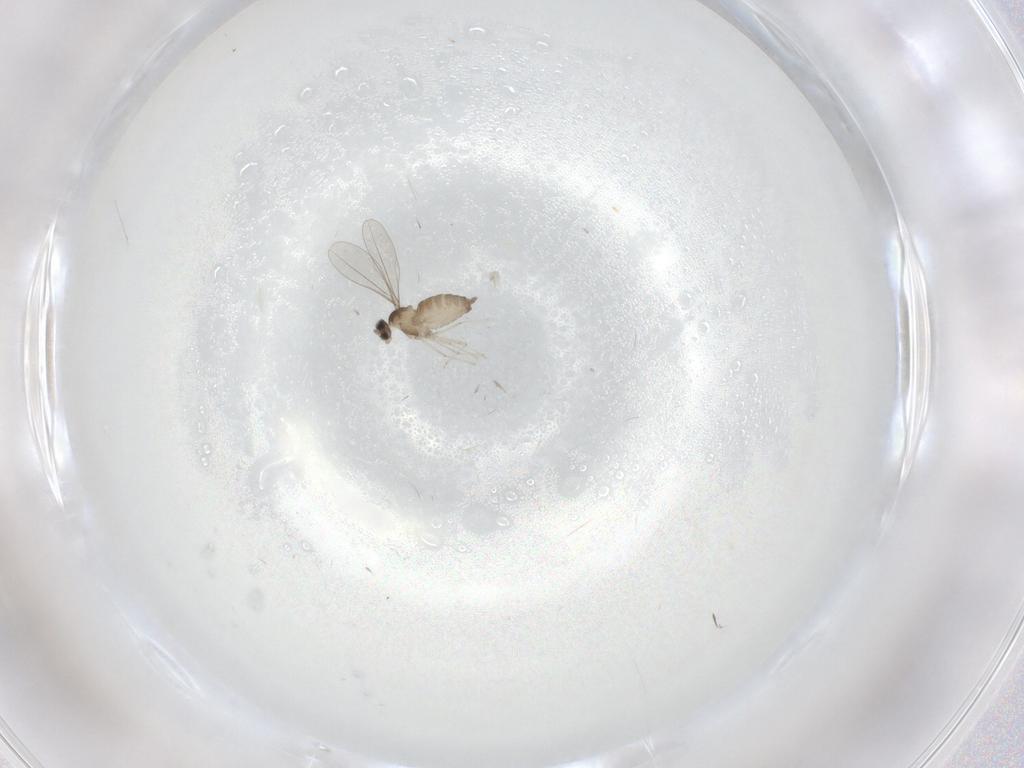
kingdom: Animalia
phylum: Arthropoda
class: Insecta
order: Diptera
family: Cecidomyiidae
